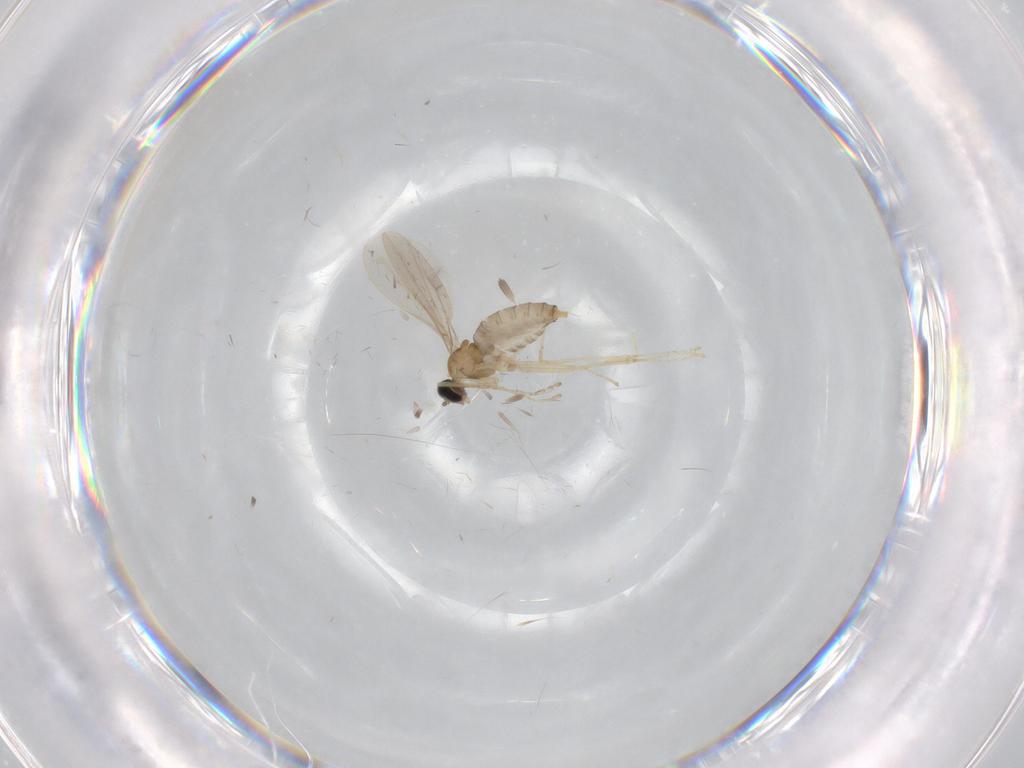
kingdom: Animalia
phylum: Arthropoda
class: Insecta
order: Diptera
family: Cecidomyiidae
